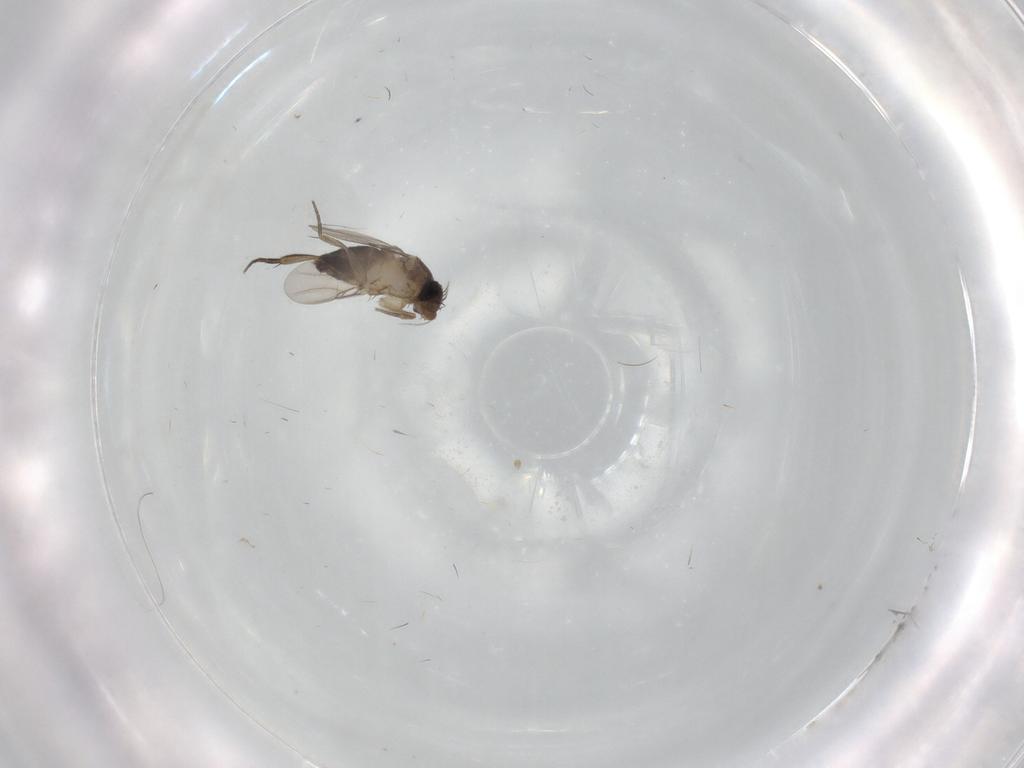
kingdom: Animalia
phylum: Arthropoda
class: Insecta
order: Diptera
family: Phoridae
